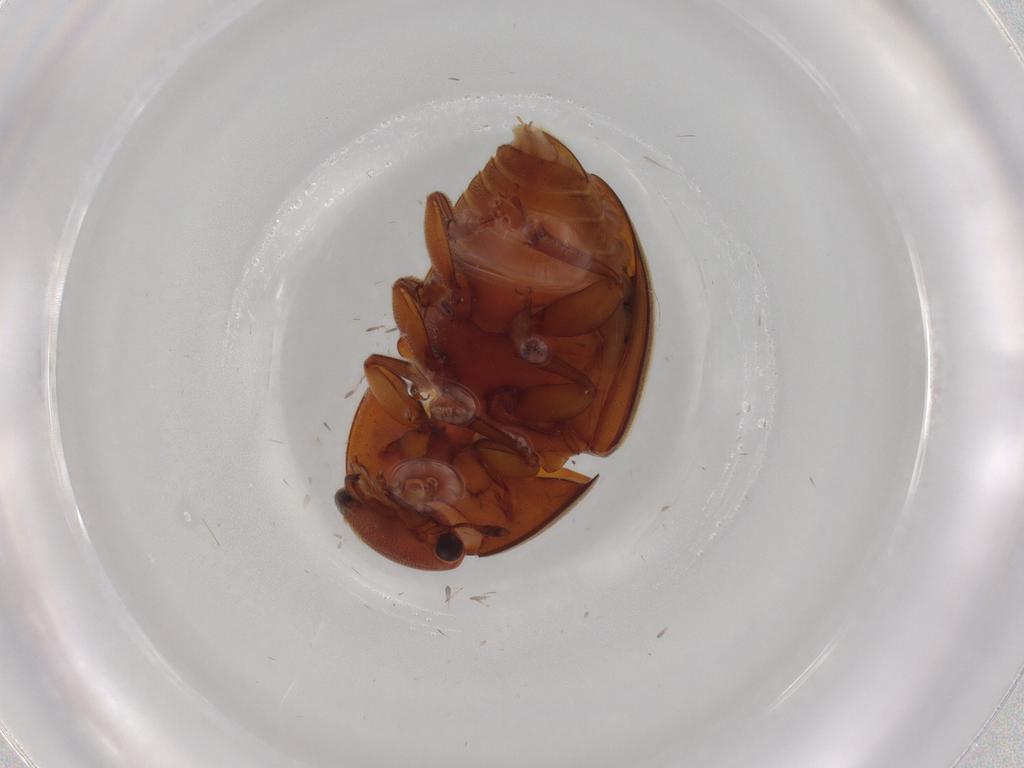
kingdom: Animalia
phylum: Arthropoda
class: Insecta
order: Coleoptera
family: Nitidulidae
